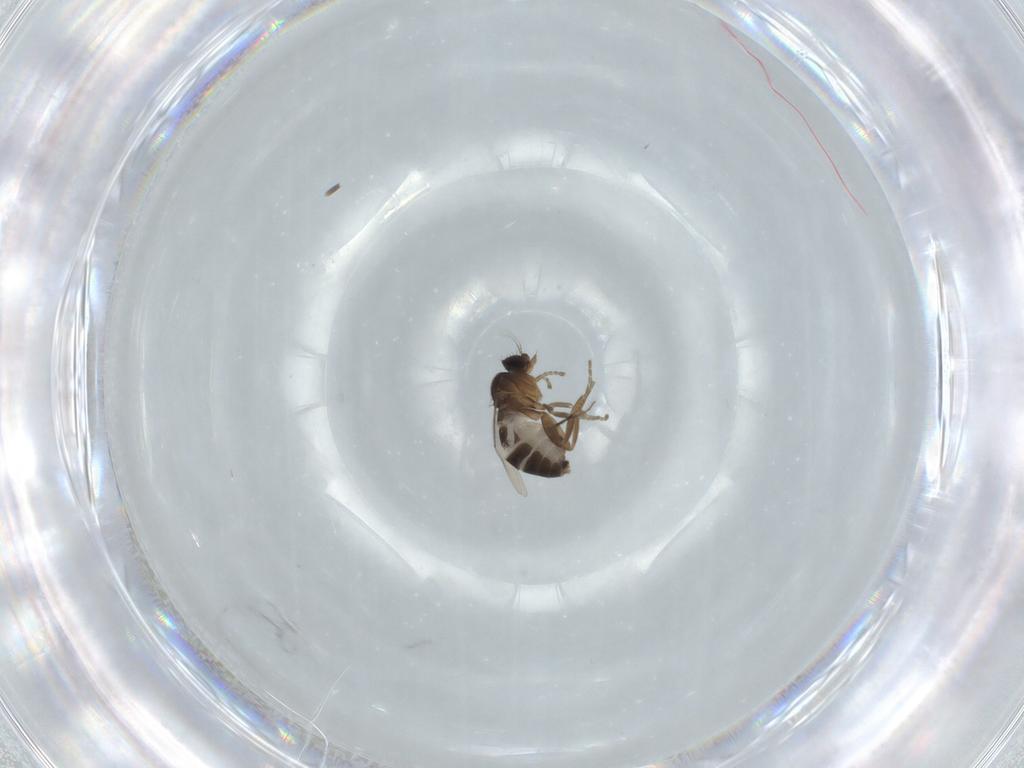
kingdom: Animalia
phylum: Arthropoda
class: Insecta
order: Diptera
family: Phoridae
